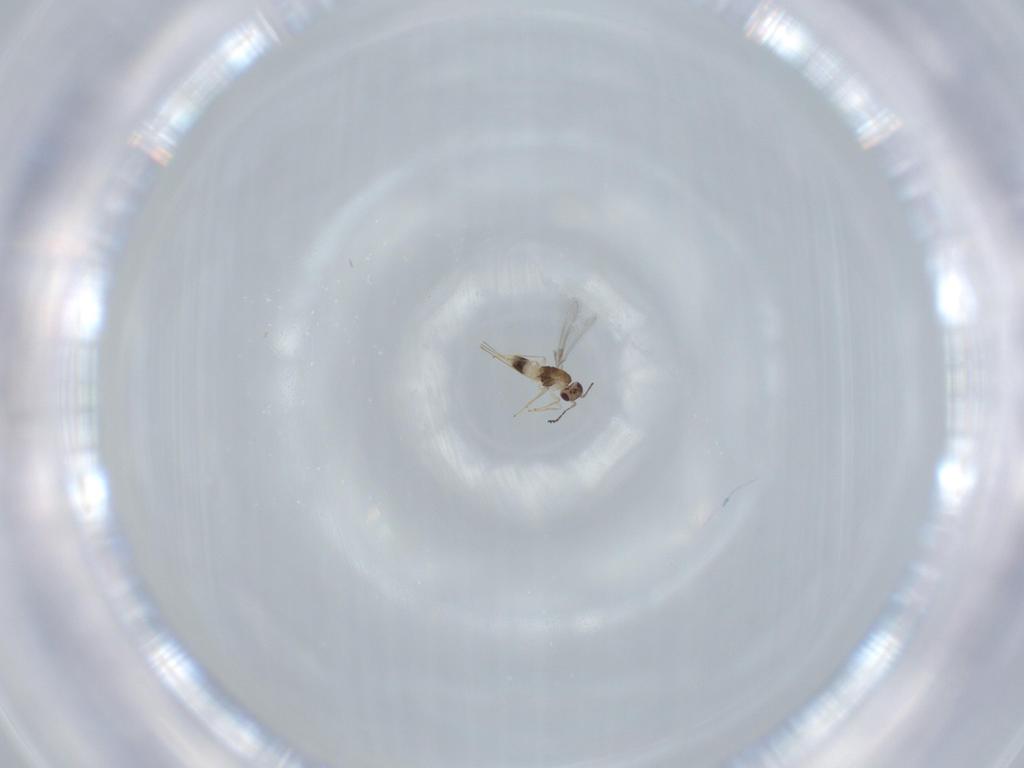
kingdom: Animalia
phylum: Arthropoda
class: Insecta
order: Hymenoptera
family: Mymaridae
